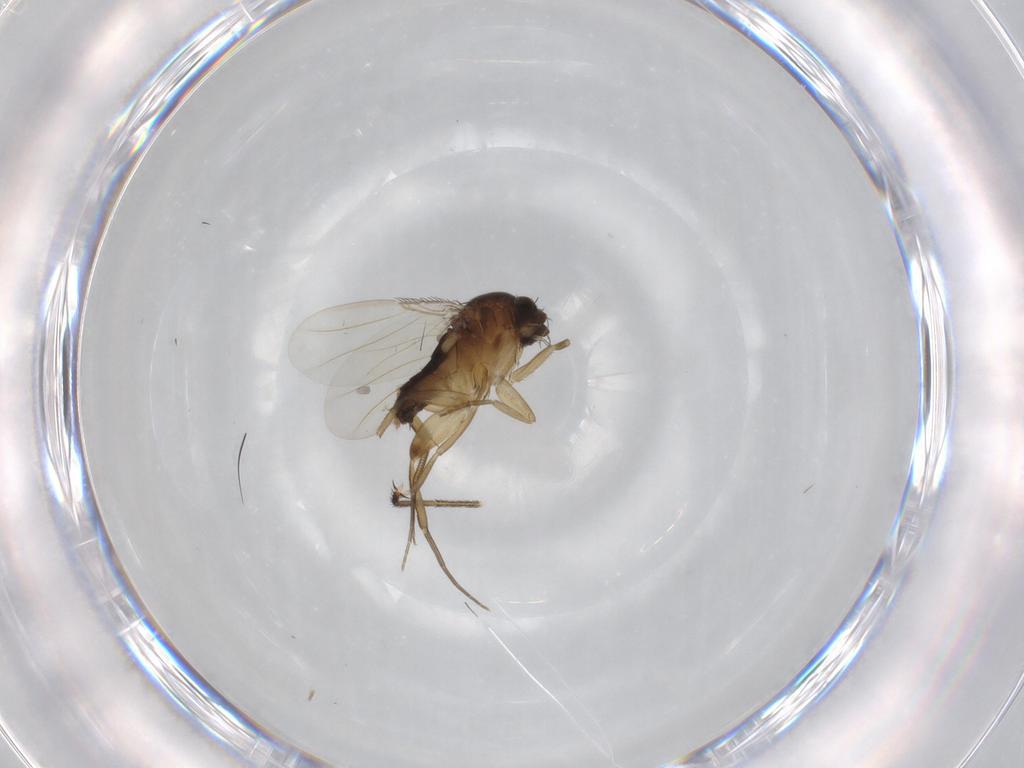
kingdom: Animalia
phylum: Arthropoda
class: Insecta
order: Diptera
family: Phoridae
